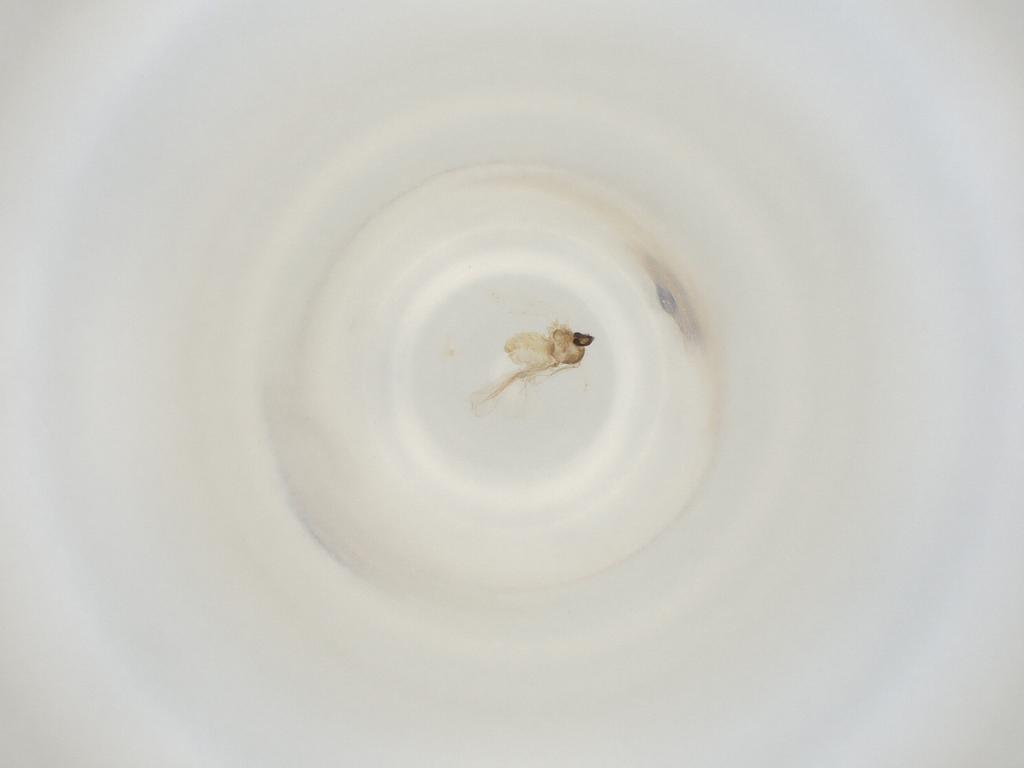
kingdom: Animalia
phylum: Arthropoda
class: Insecta
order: Diptera
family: Cecidomyiidae
